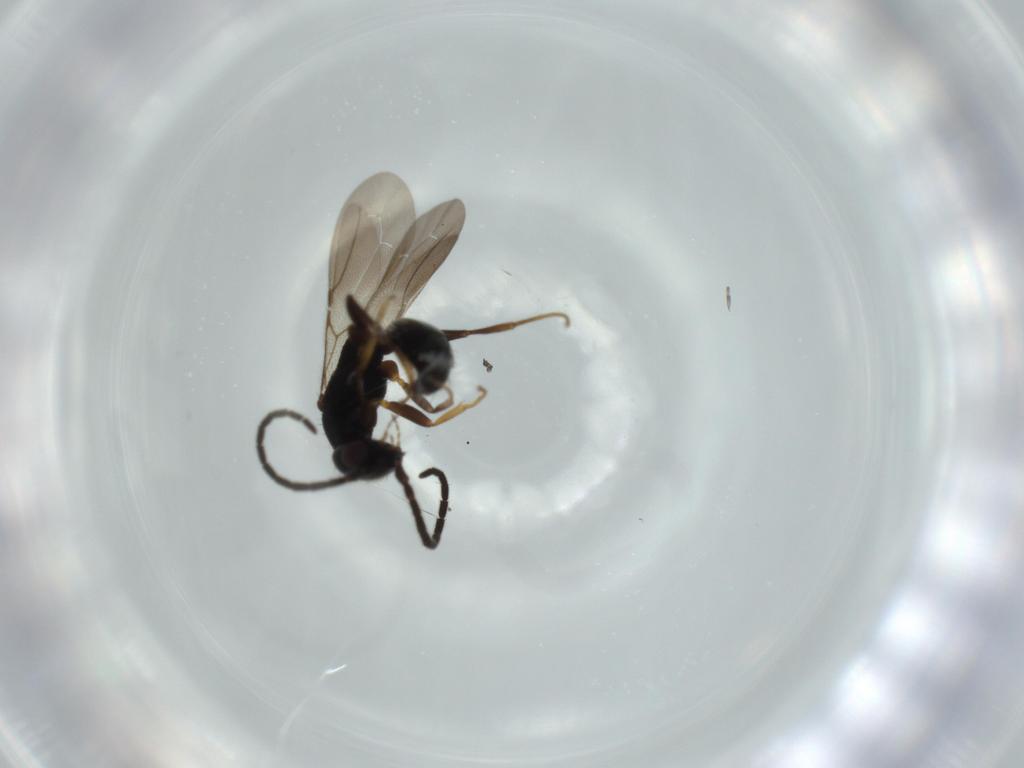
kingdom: Animalia
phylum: Arthropoda
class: Insecta
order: Hymenoptera
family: Bethylidae
